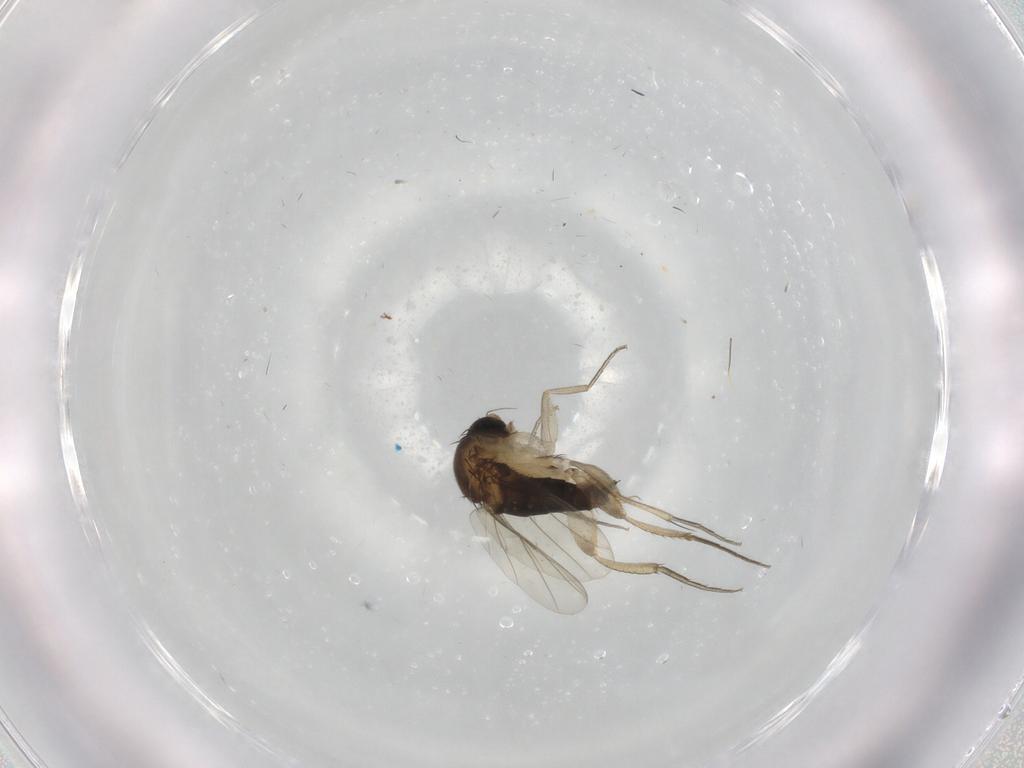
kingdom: Animalia
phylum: Arthropoda
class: Insecta
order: Diptera
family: Phoridae
